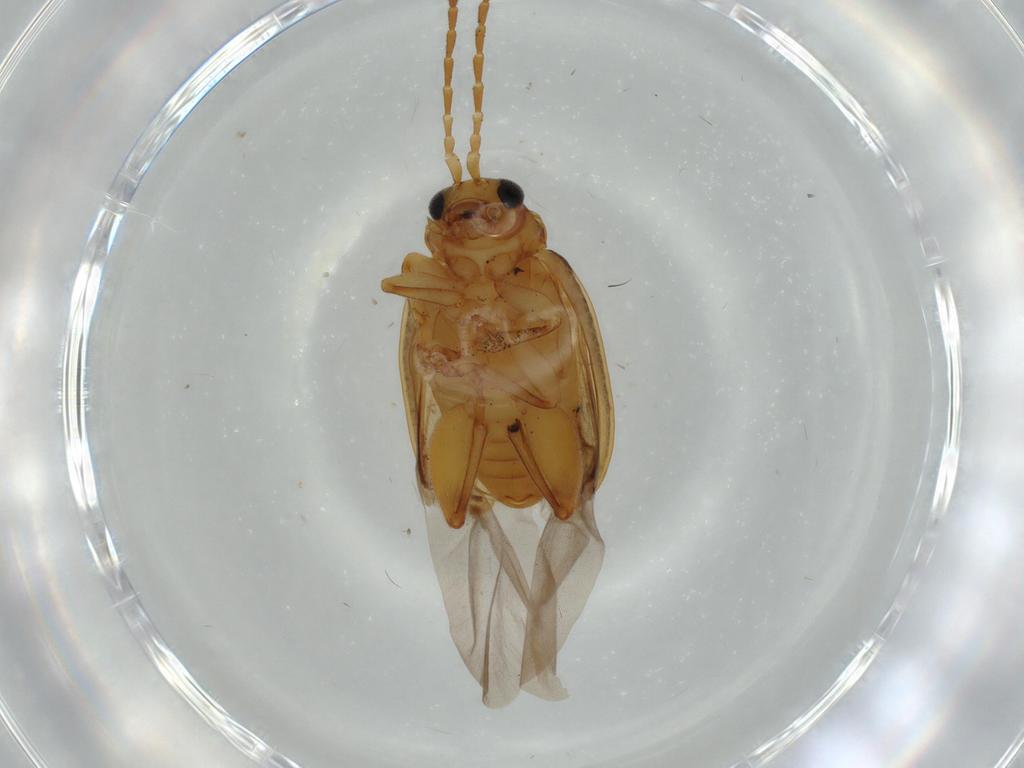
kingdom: Animalia
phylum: Arthropoda
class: Insecta
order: Coleoptera
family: Chrysomelidae
